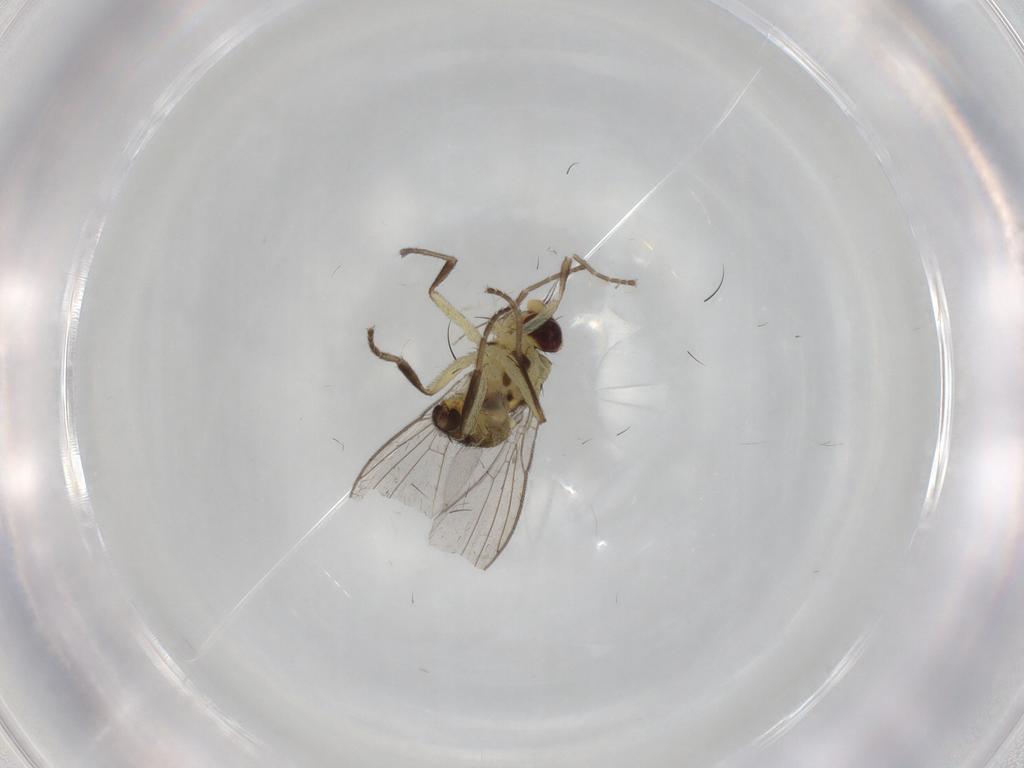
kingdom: Animalia
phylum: Arthropoda
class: Insecta
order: Diptera
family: Agromyzidae
